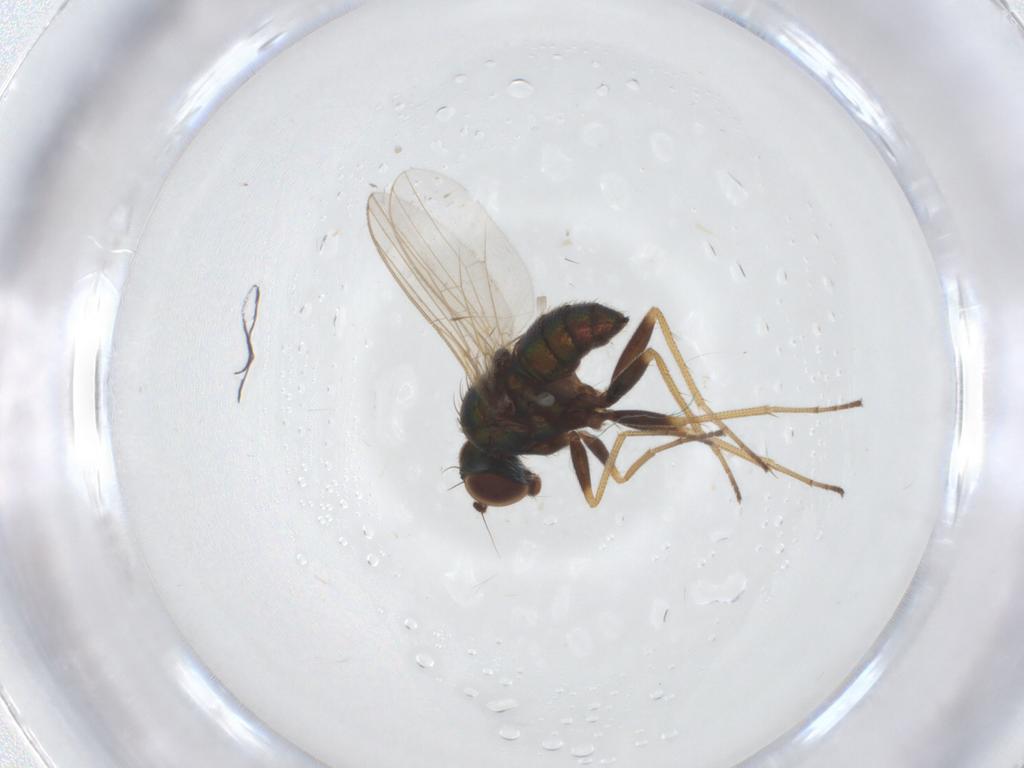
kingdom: Animalia
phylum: Arthropoda
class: Insecta
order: Diptera
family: Dolichopodidae
